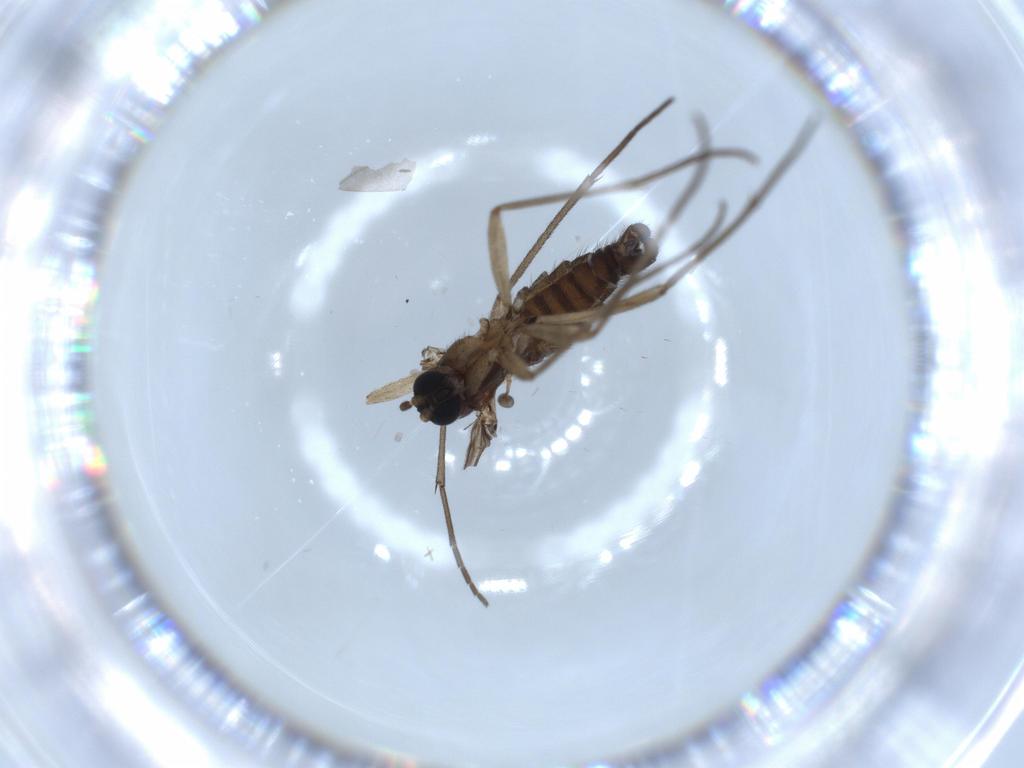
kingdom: Animalia
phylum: Arthropoda
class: Insecta
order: Diptera
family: Sciaridae
